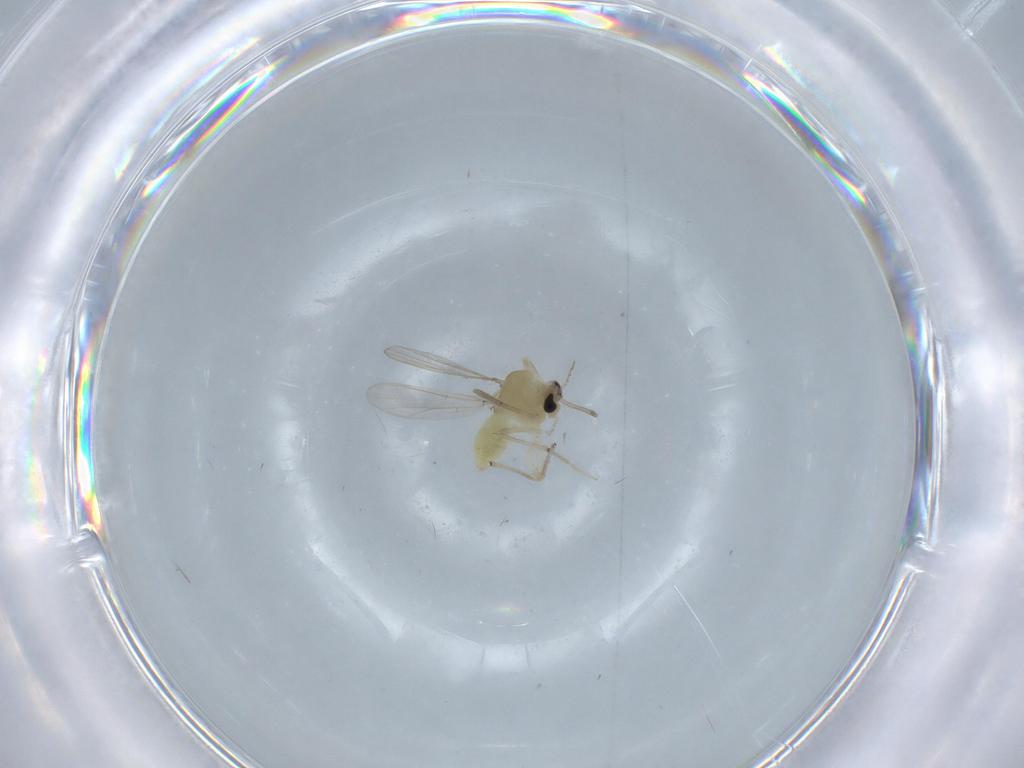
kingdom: Animalia
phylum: Arthropoda
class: Insecta
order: Diptera
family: Chironomidae
